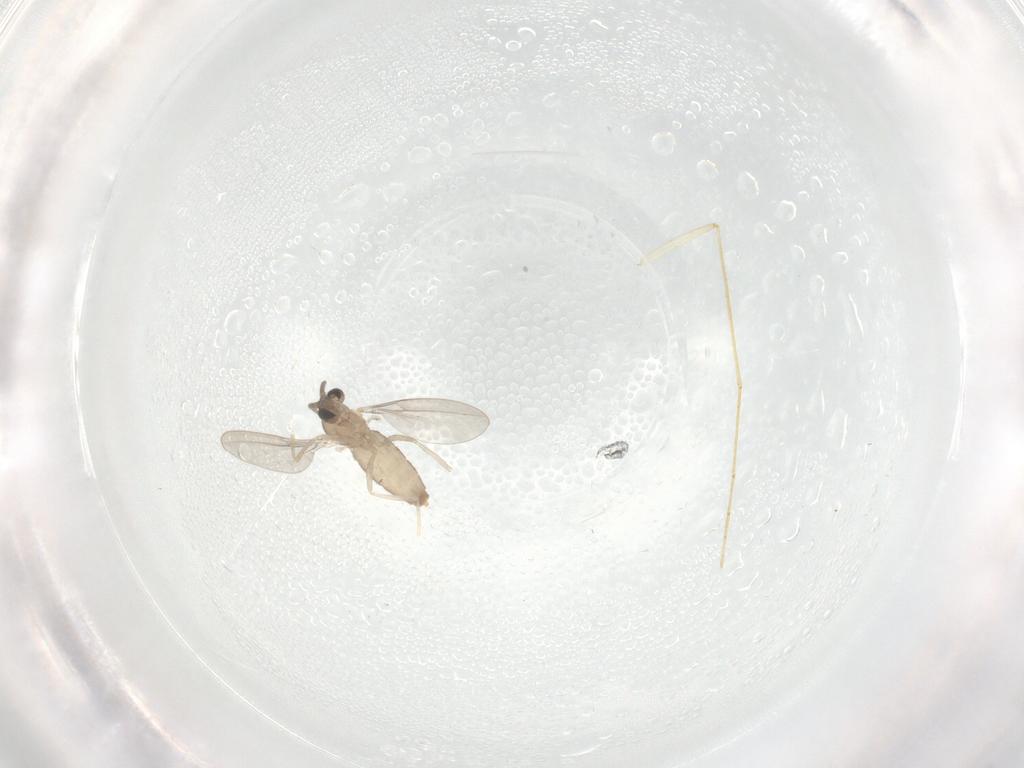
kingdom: Animalia
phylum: Arthropoda
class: Insecta
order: Diptera
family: Cecidomyiidae
